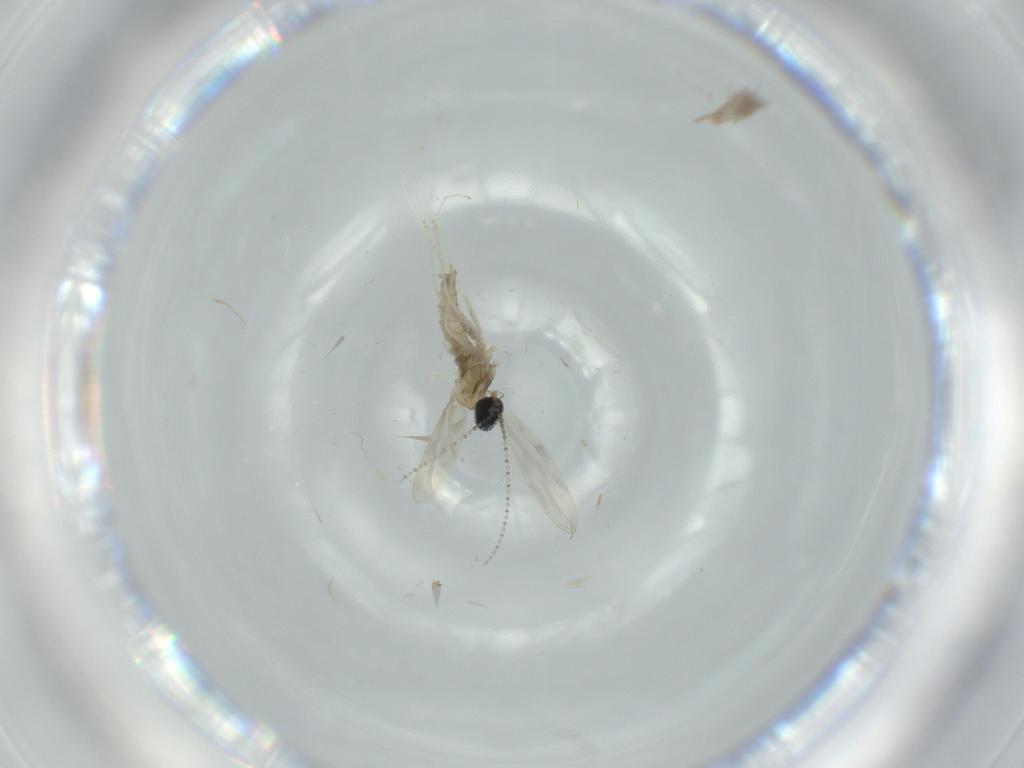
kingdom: Animalia
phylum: Arthropoda
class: Insecta
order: Diptera
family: Cecidomyiidae
